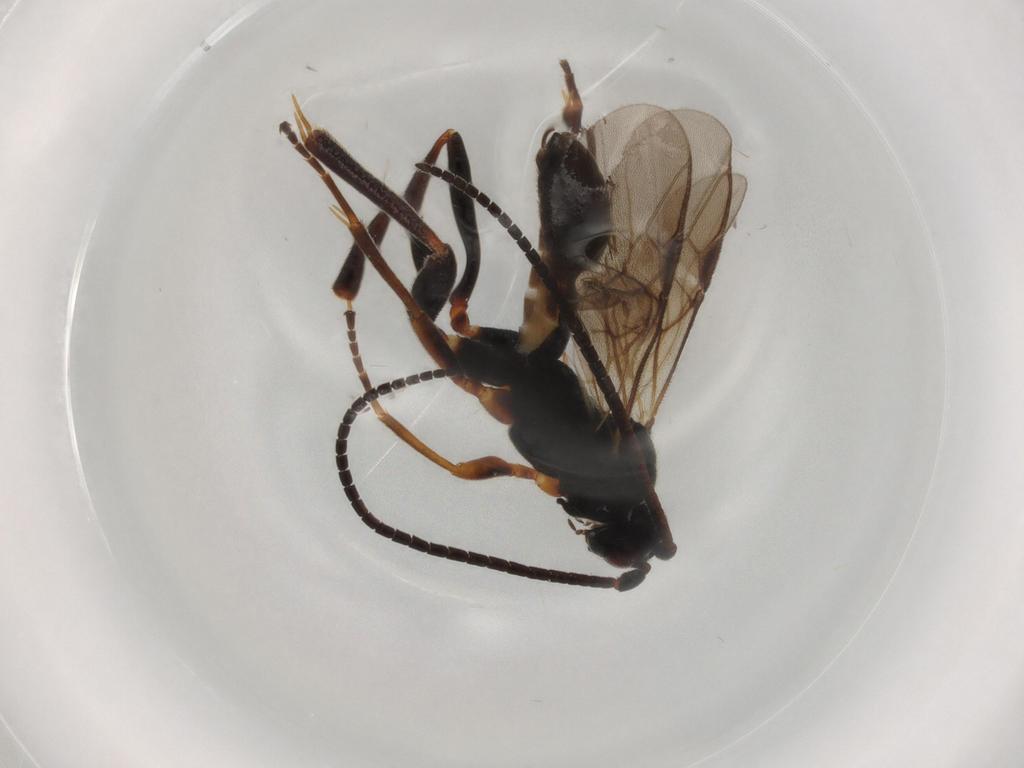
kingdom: Animalia
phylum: Arthropoda
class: Insecta
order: Hymenoptera
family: Braconidae
